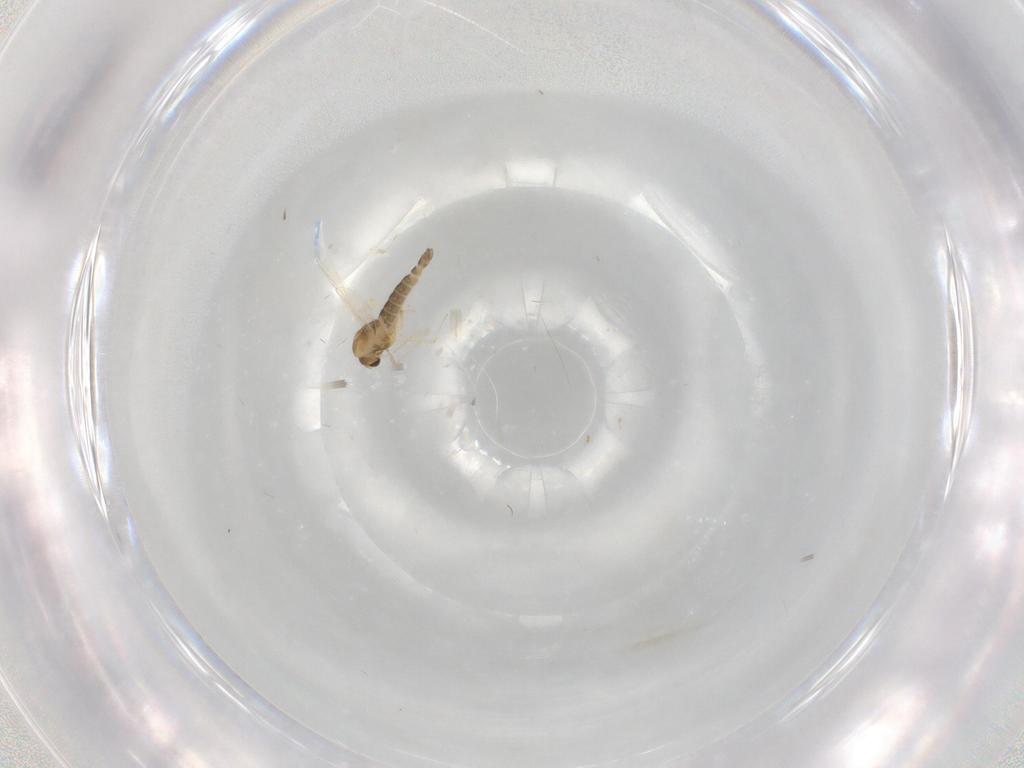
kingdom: Animalia
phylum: Arthropoda
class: Insecta
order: Diptera
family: Chironomidae
